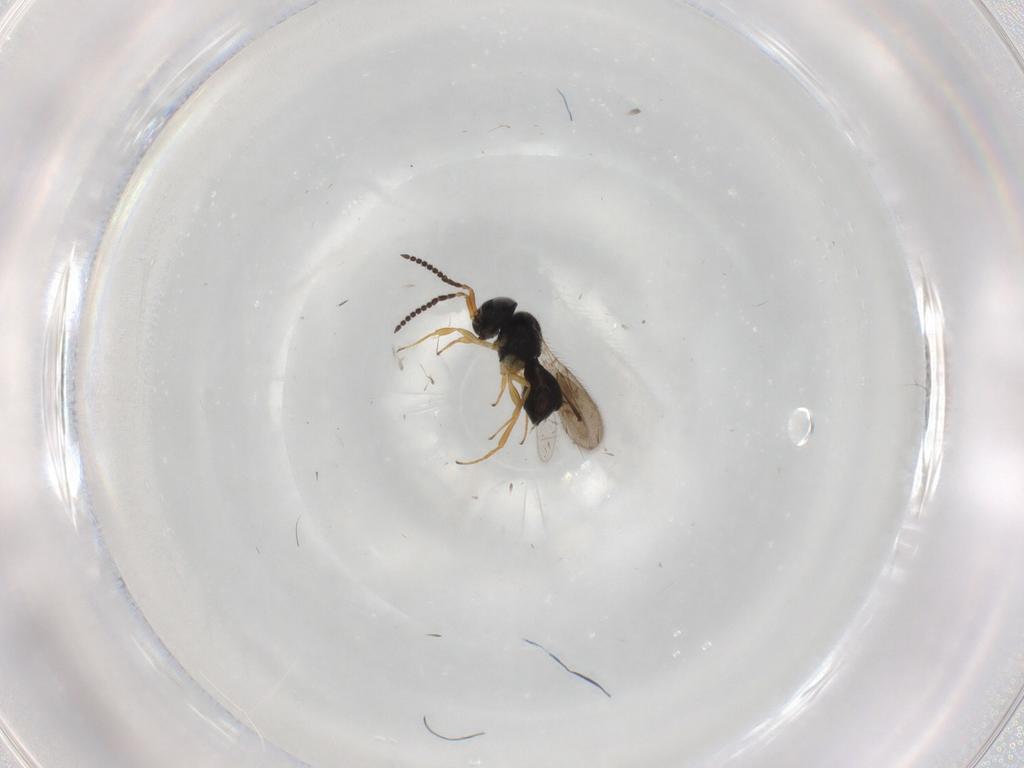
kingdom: Animalia
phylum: Arthropoda
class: Insecta
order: Hymenoptera
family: Scelionidae
